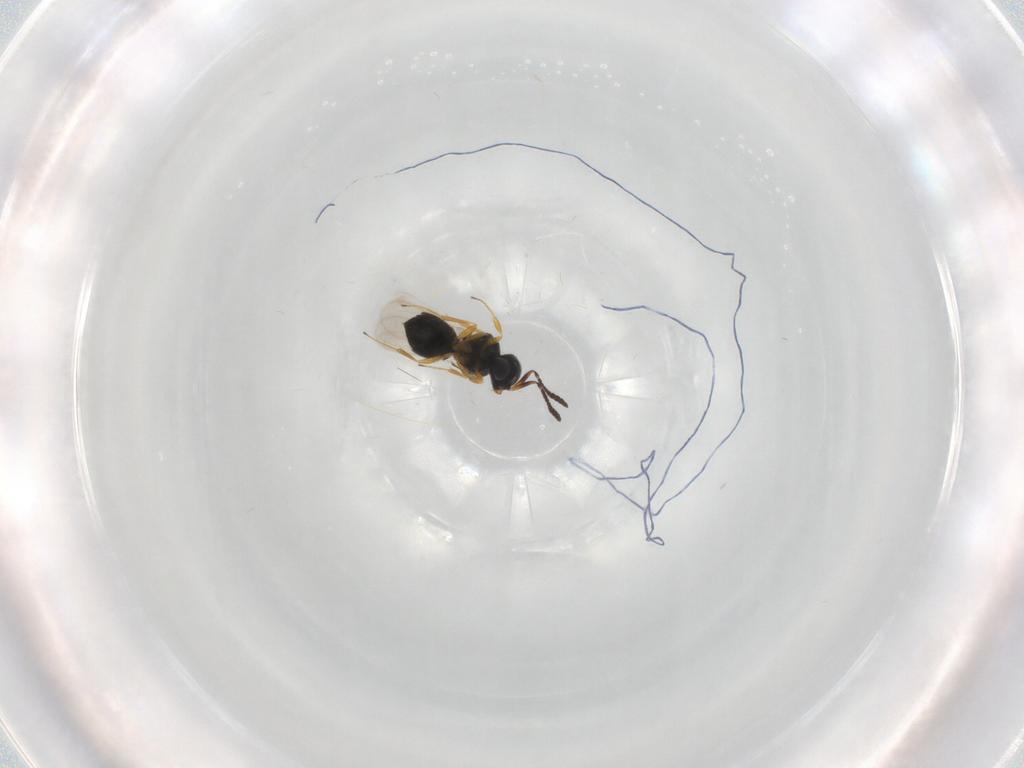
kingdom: Animalia
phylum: Arthropoda
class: Insecta
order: Hymenoptera
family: Scelionidae
